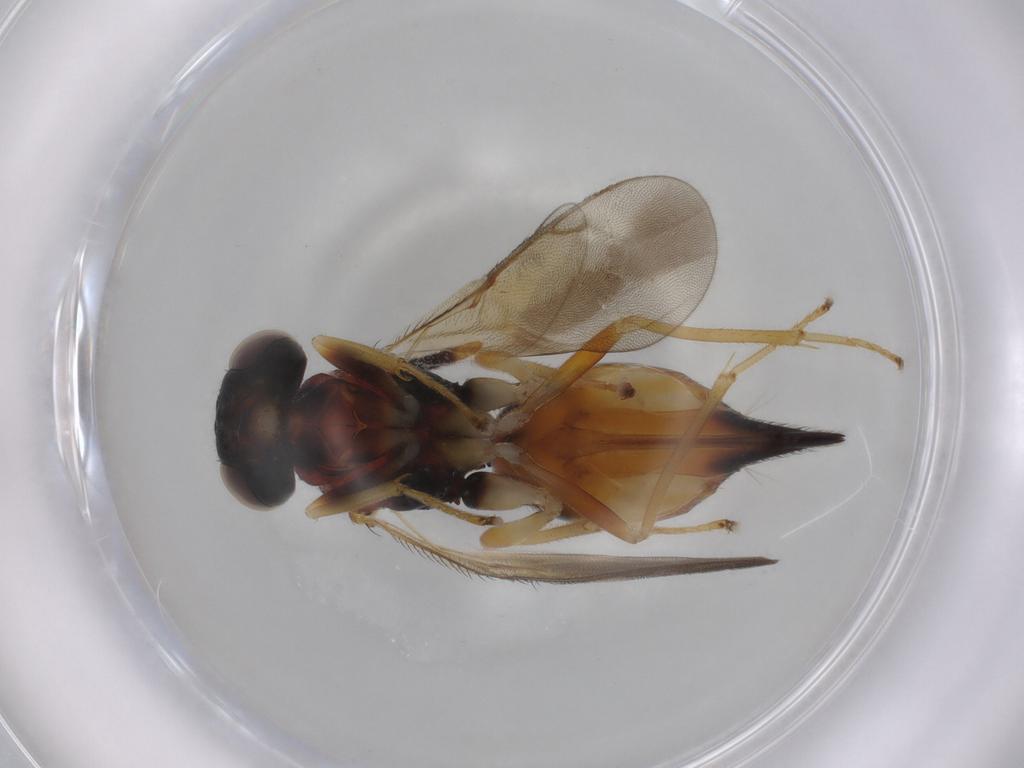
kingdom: Animalia
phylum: Arthropoda
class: Insecta
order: Hymenoptera
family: Diparidae
